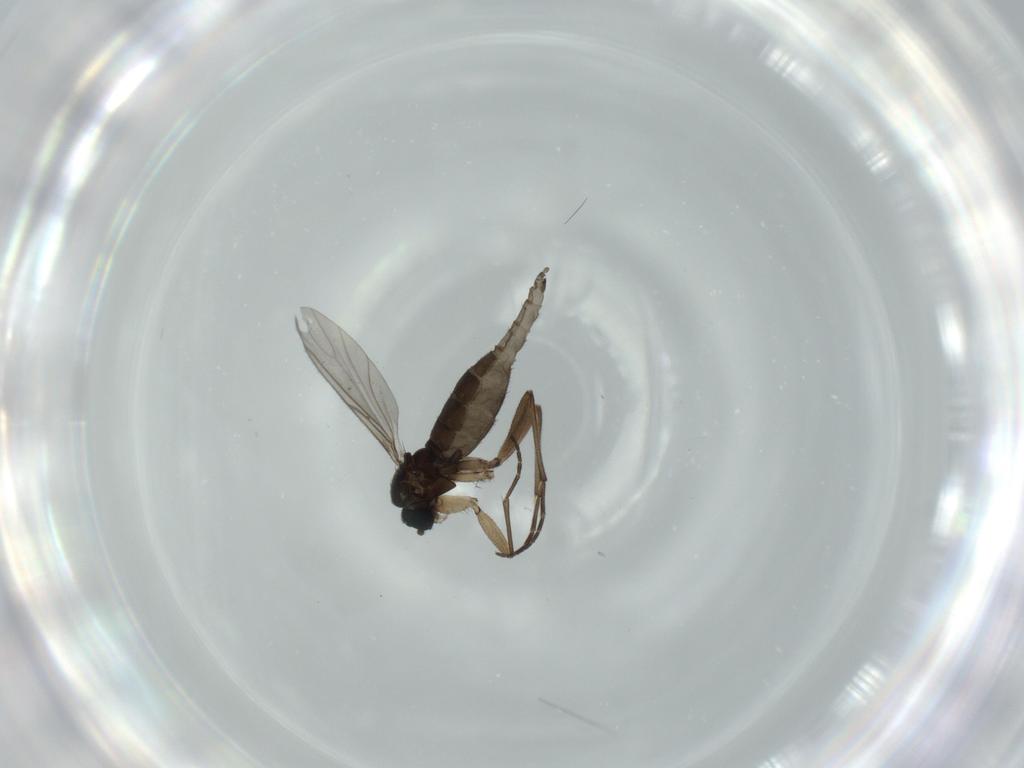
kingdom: Animalia
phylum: Arthropoda
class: Insecta
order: Diptera
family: Sciaridae
